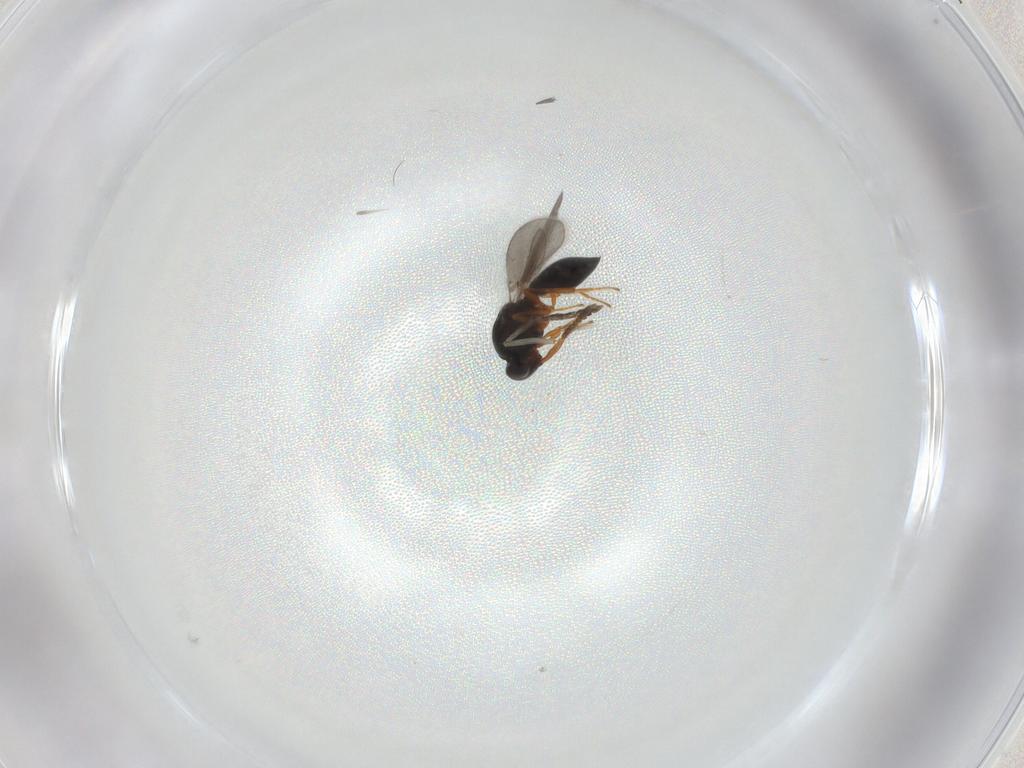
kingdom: Animalia
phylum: Arthropoda
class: Insecta
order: Hymenoptera
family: Platygastridae
